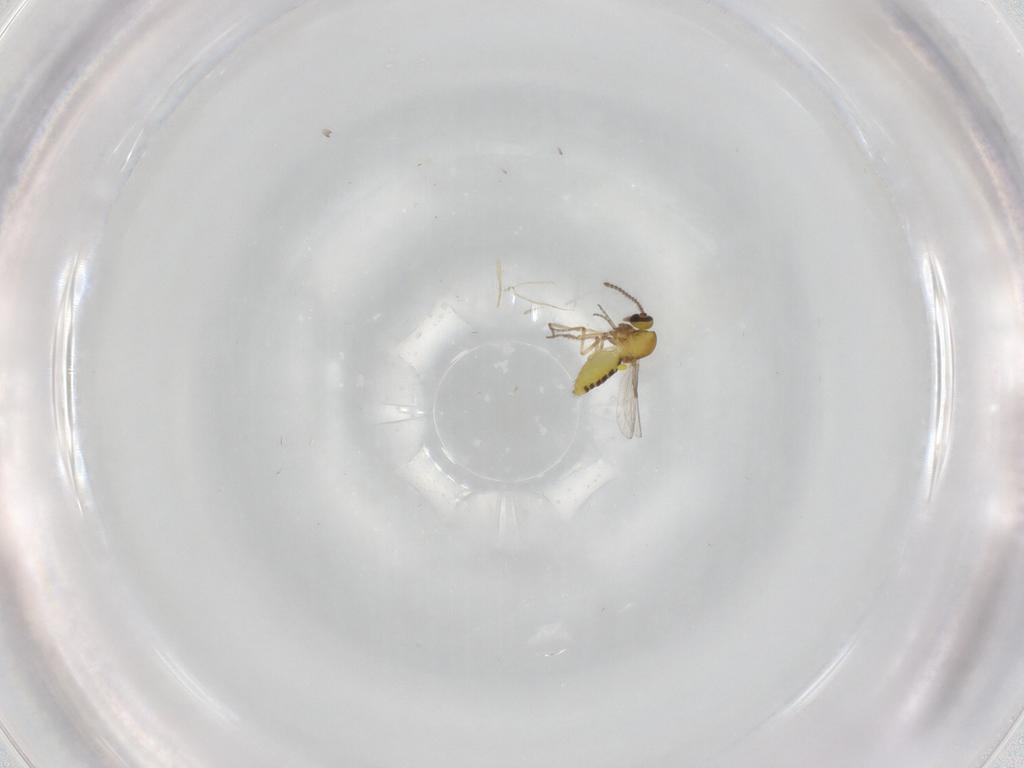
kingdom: Animalia
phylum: Arthropoda
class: Insecta
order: Diptera
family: Ceratopogonidae
